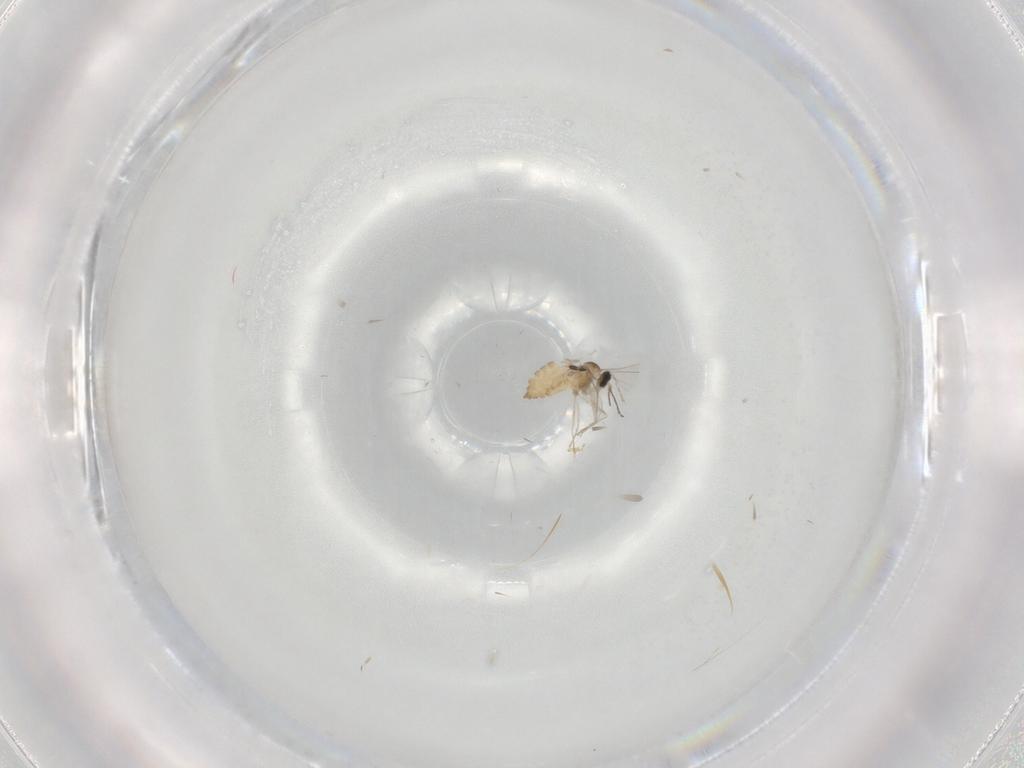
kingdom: Animalia
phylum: Arthropoda
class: Insecta
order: Diptera
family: Cecidomyiidae
